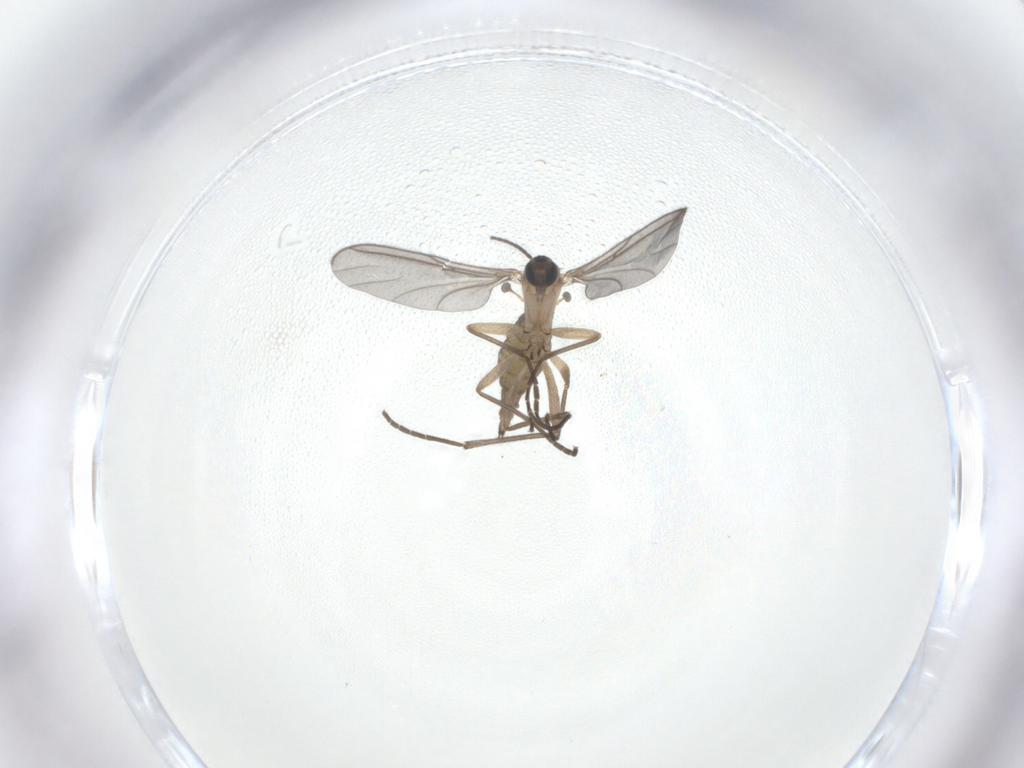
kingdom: Animalia
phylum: Arthropoda
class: Insecta
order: Diptera
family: Sciaridae
